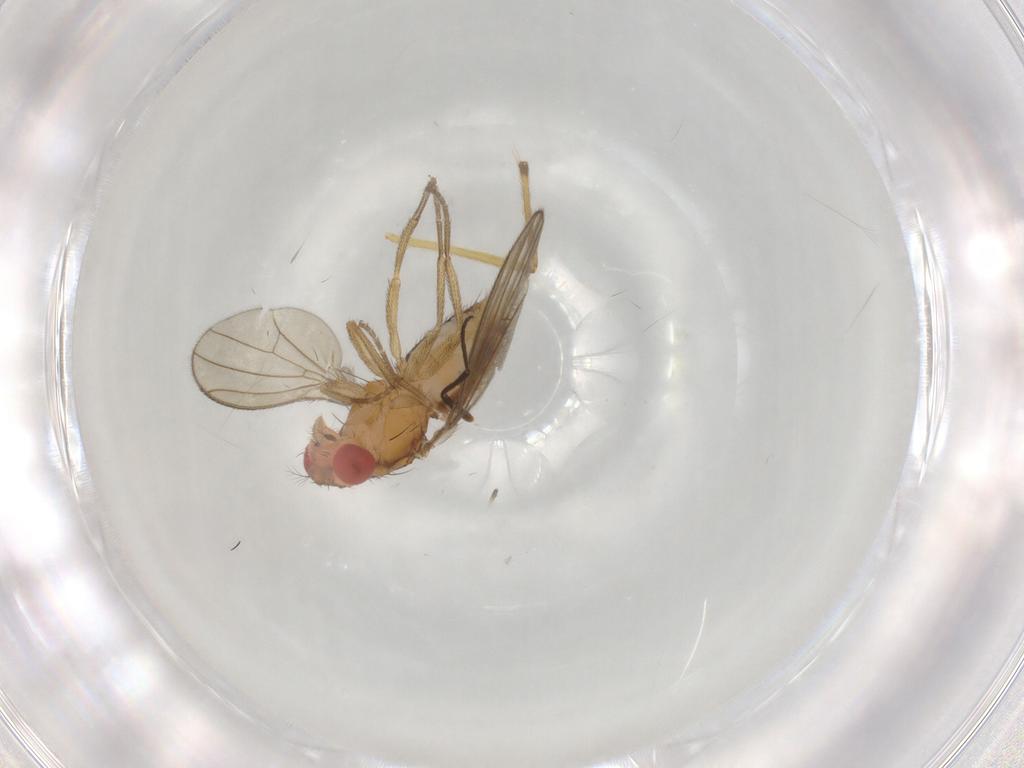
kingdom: Animalia
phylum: Arthropoda
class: Insecta
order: Diptera
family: Drosophilidae
